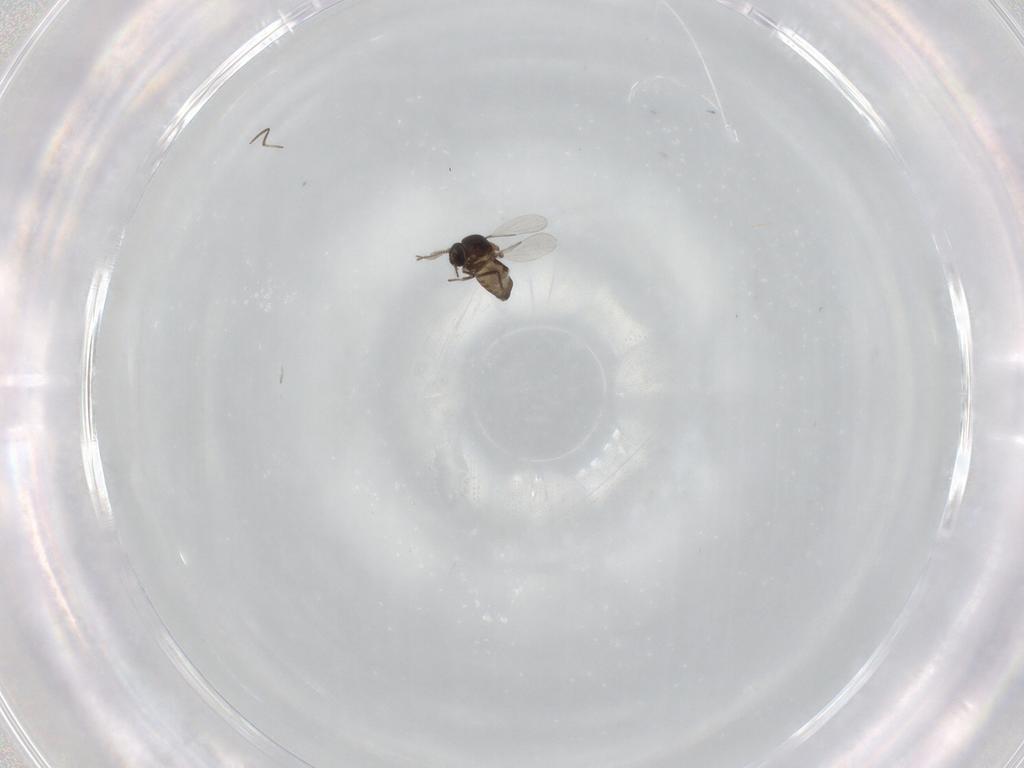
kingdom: Animalia
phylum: Arthropoda
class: Insecta
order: Diptera
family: Ceratopogonidae
